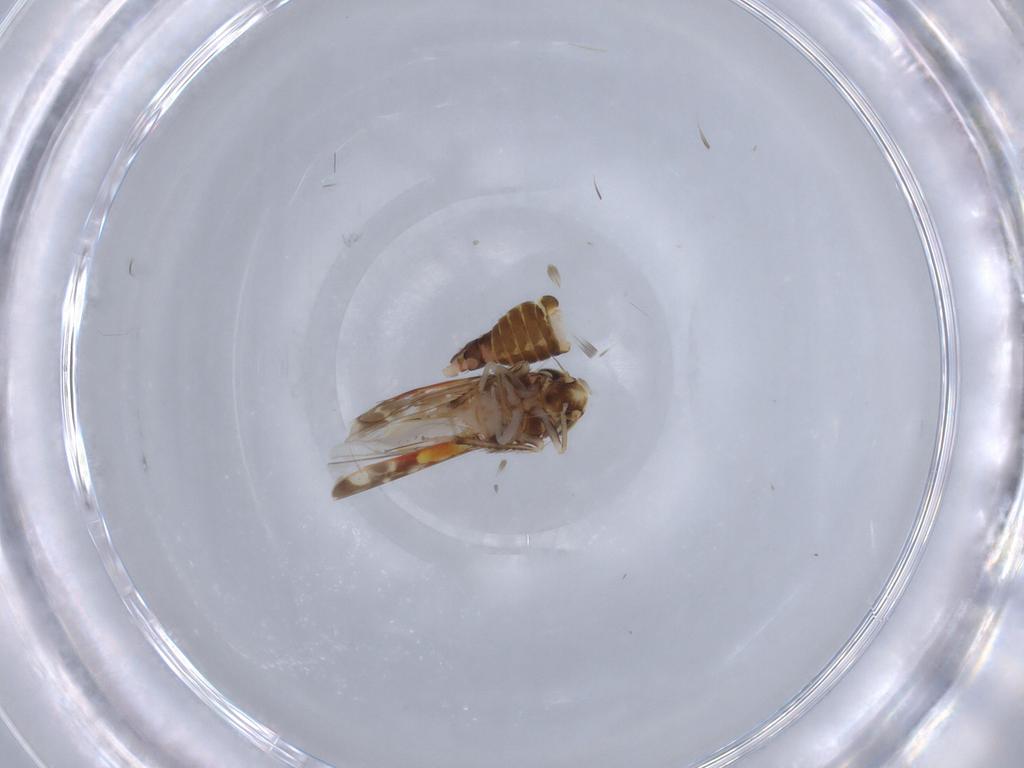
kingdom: Animalia
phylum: Arthropoda
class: Insecta
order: Hemiptera
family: Cicadellidae
